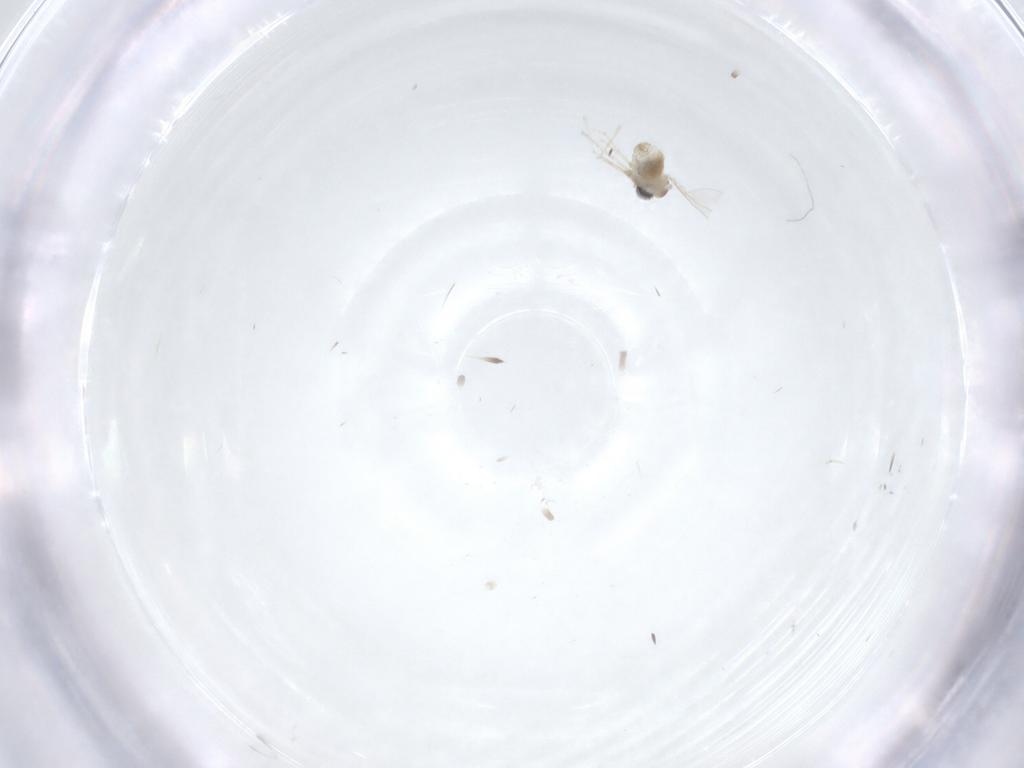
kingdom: Animalia
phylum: Arthropoda
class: Insecta
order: Diptera
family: Cecidomyiidae
